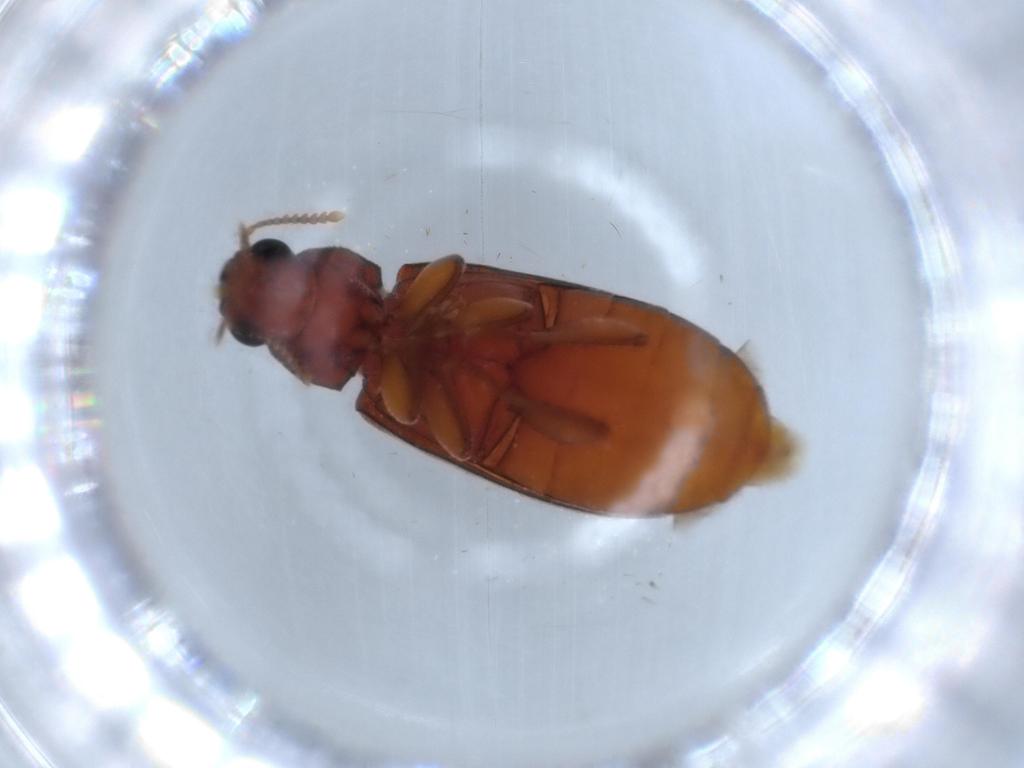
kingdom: Animalia
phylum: Arthropoda
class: Insecta
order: Coleoptera
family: Mycteridae
